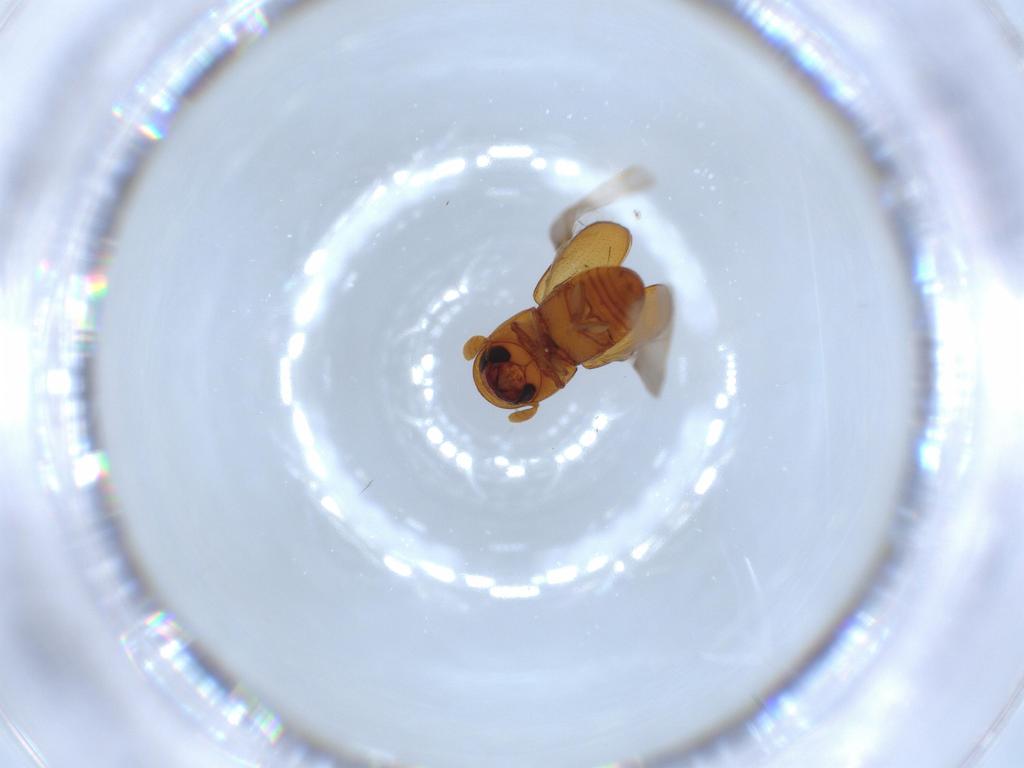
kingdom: Animalia
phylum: Arthropoda
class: Insecta
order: Coleoptera
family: Curculionidae
